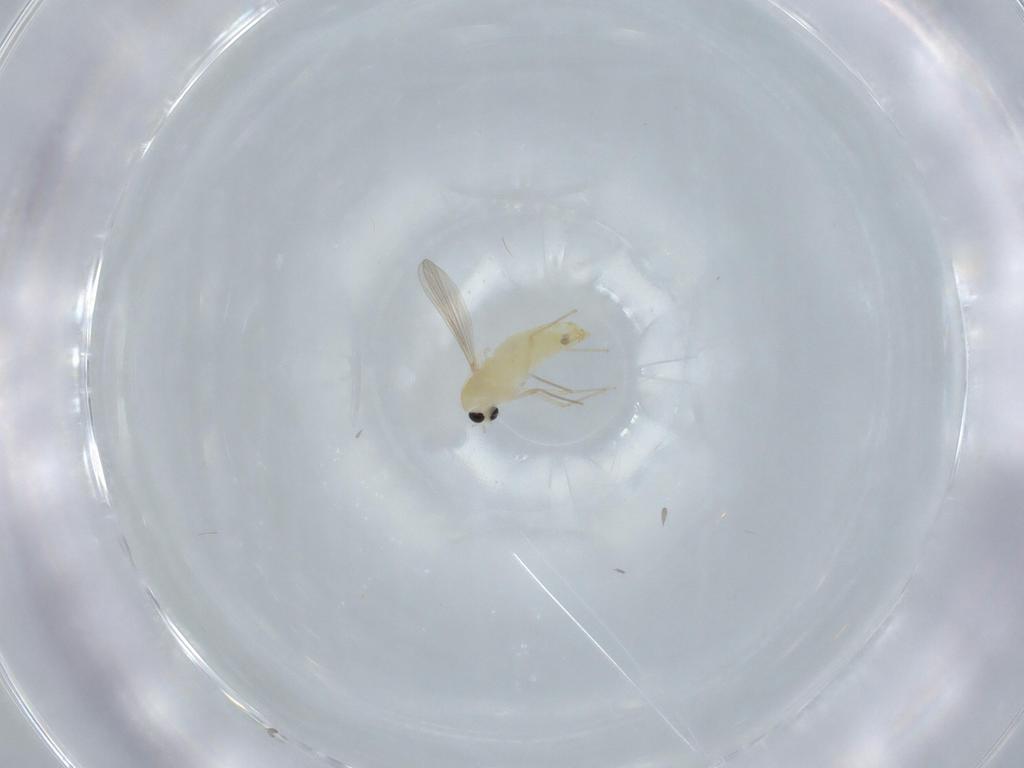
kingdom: Animalia
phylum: Arthropoda
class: Insecta
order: Diptera
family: Chironomidae
